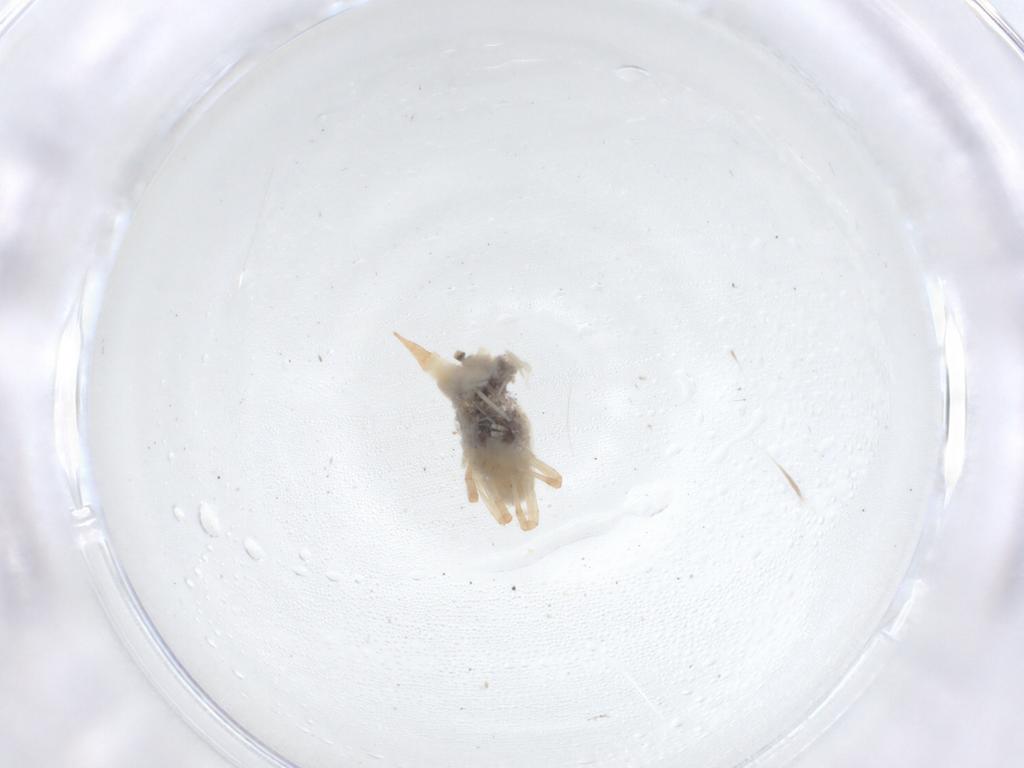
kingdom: Animalia
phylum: Arthropoda
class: Arachnida
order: Trombidiformes
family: Bdellidae
